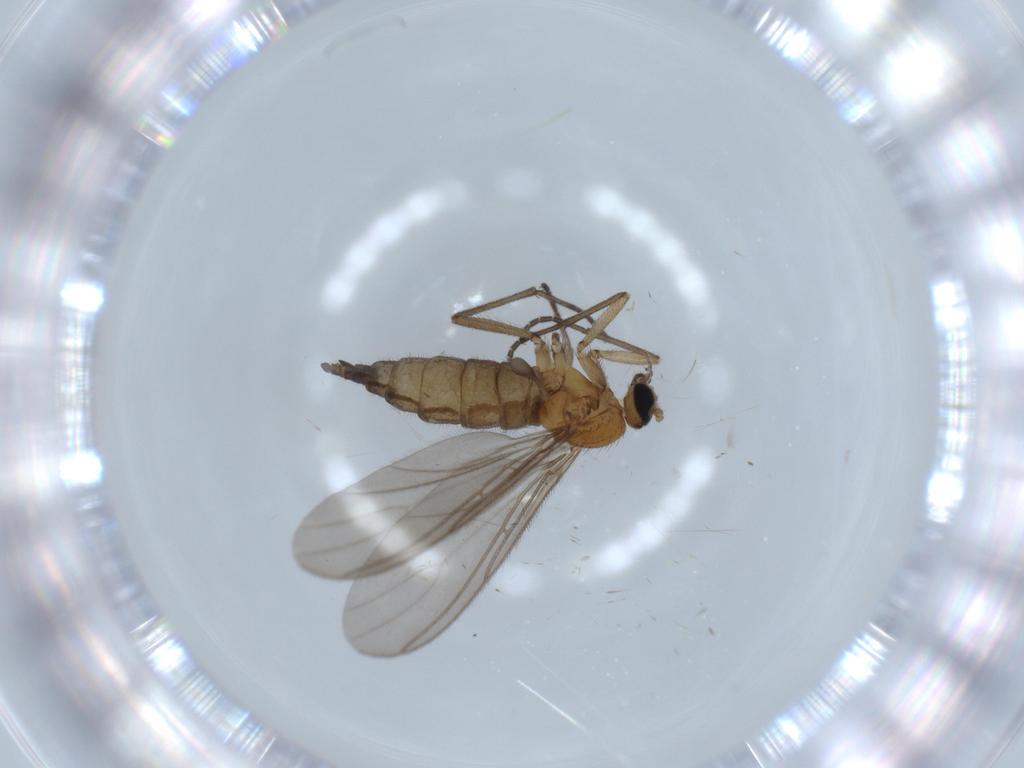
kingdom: Animalia
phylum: Arthropoda
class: Insecta
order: Diptera
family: Sciaridae
